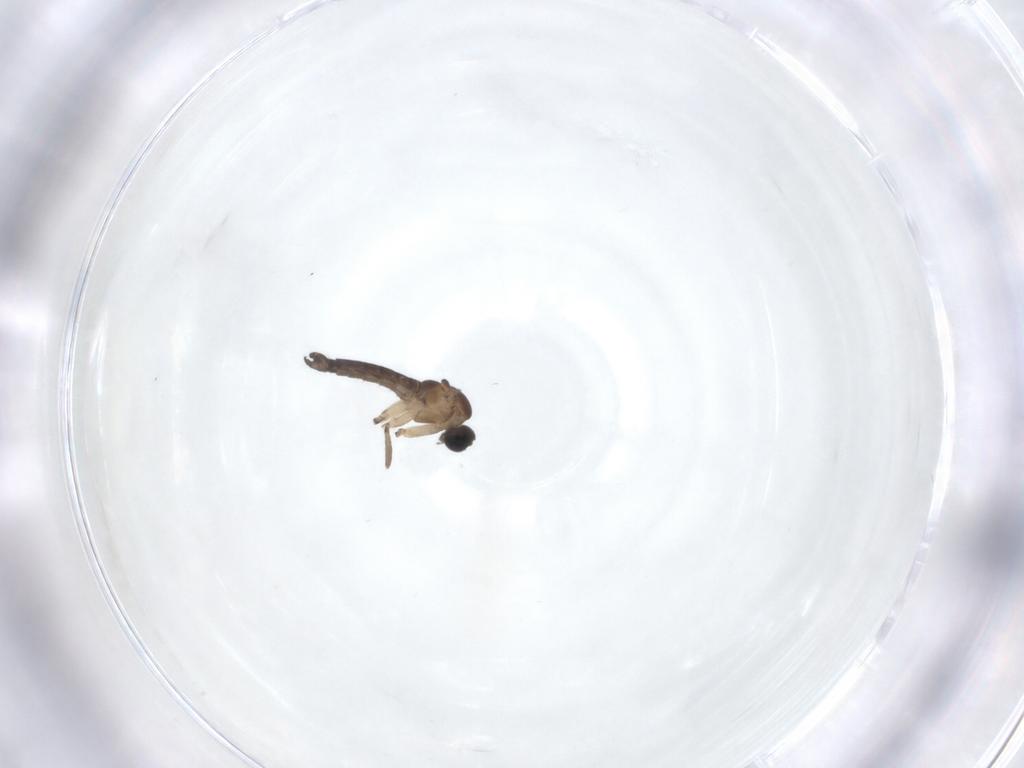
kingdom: Animalia
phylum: Arthropoda
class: Insecta
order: Diptera
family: Sciaridae
